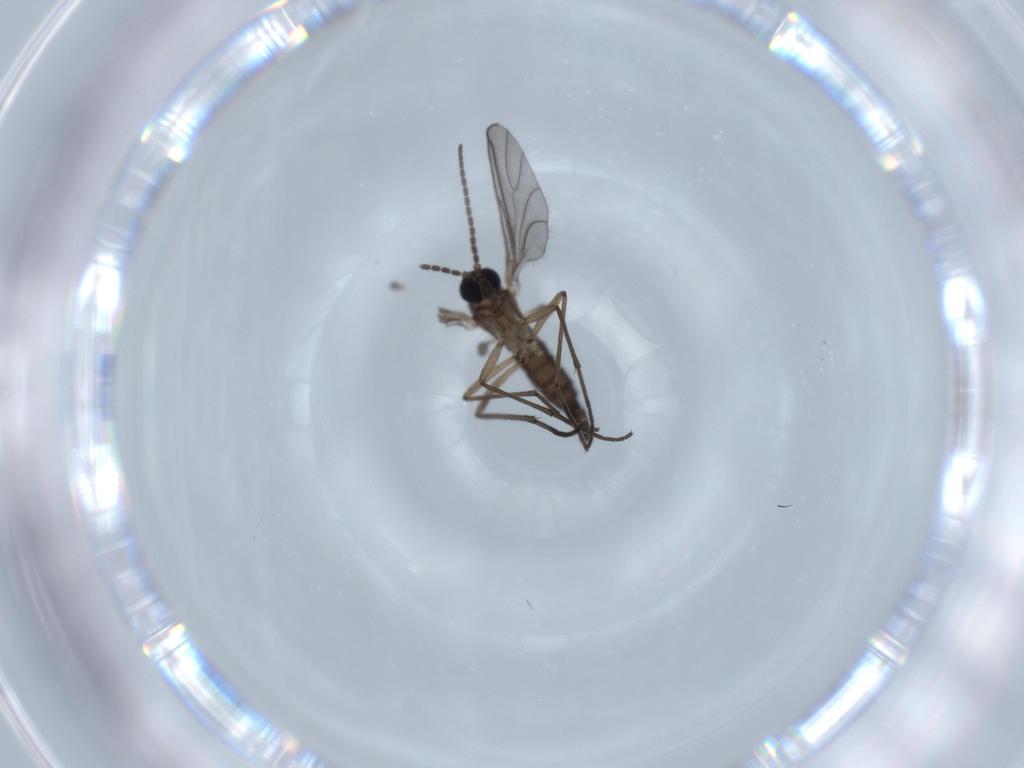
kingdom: Animalia
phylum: Arthropoda
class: Insecta
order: Diptera
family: Sciaridae
